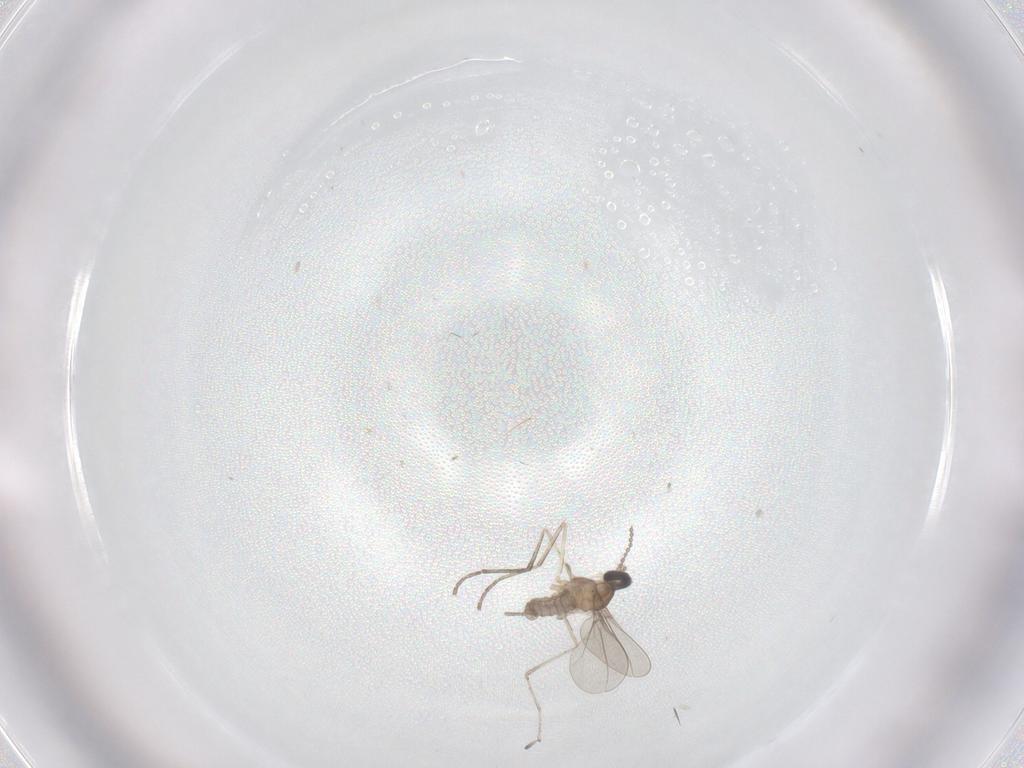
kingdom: Animalia
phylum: Arthropoda
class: Insecta
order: Diptera
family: Cecidomyiidae
